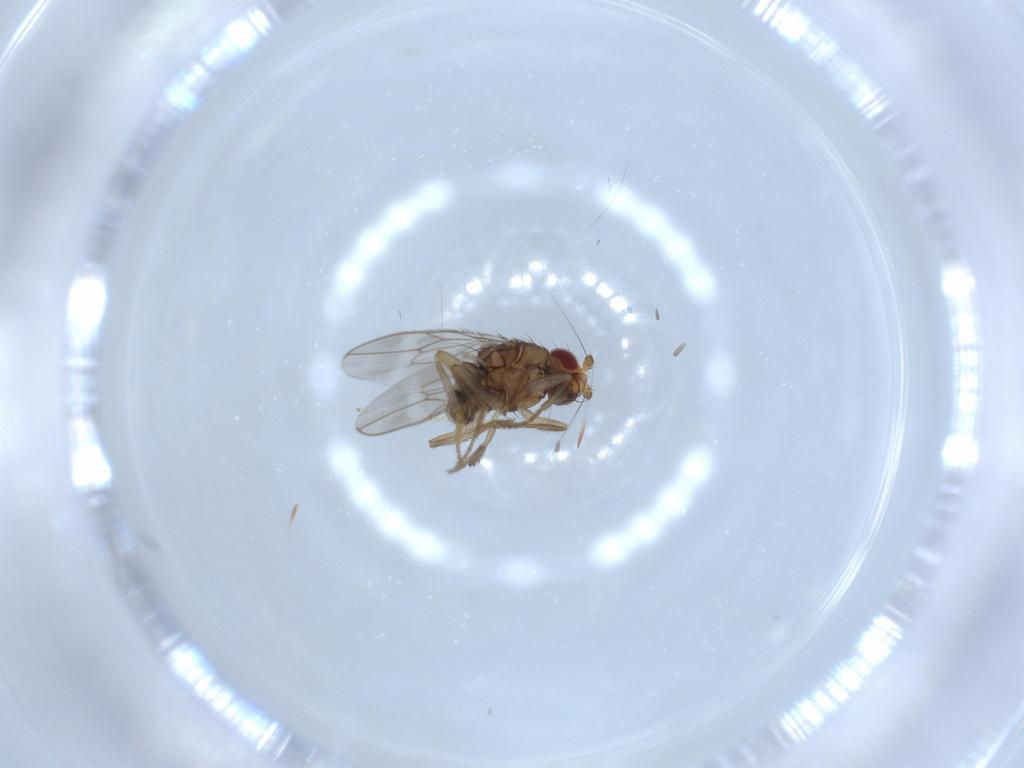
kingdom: Animalia
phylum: Arthropoda
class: Insecta
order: Diptera
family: Sphaeroceridae
